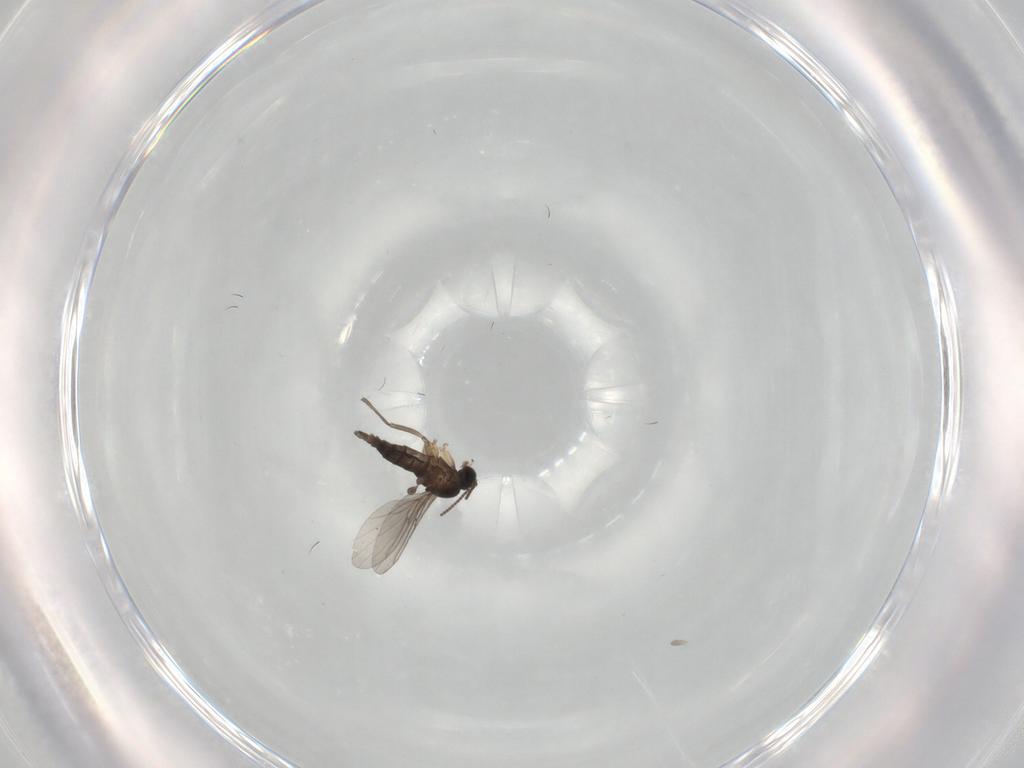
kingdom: Animalia
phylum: Arthropoda
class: Insecta
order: Diptera
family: Sciaridae
